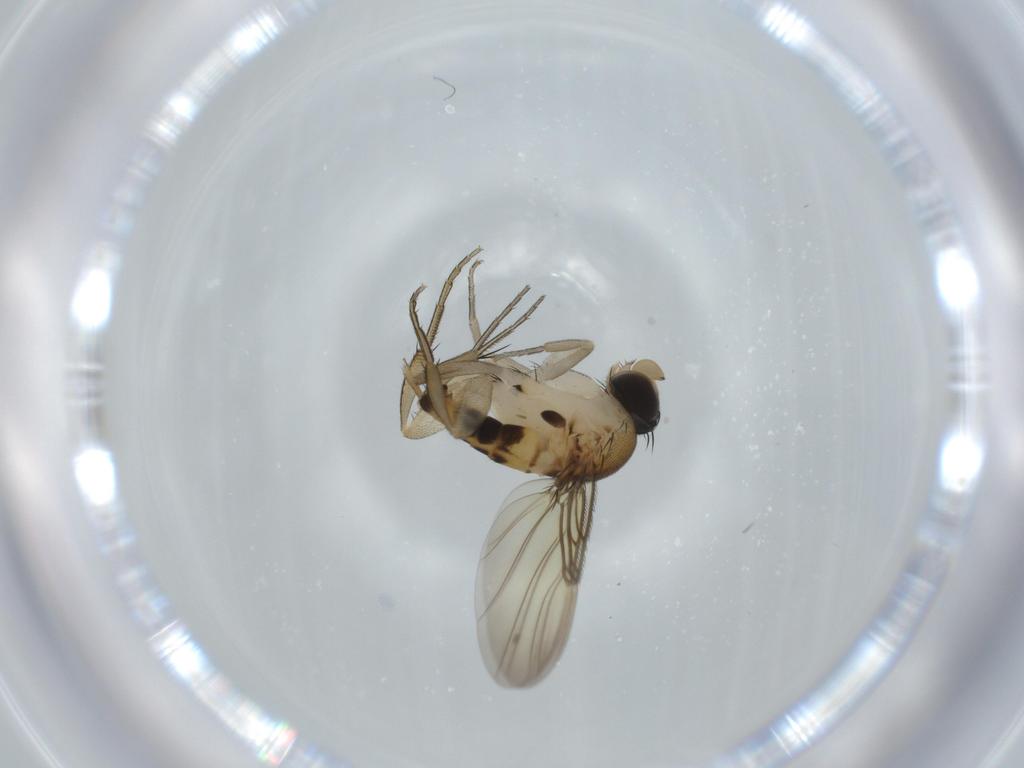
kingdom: Animalia
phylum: Arthropoda
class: Insecta
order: Diptera
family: Phoridae
